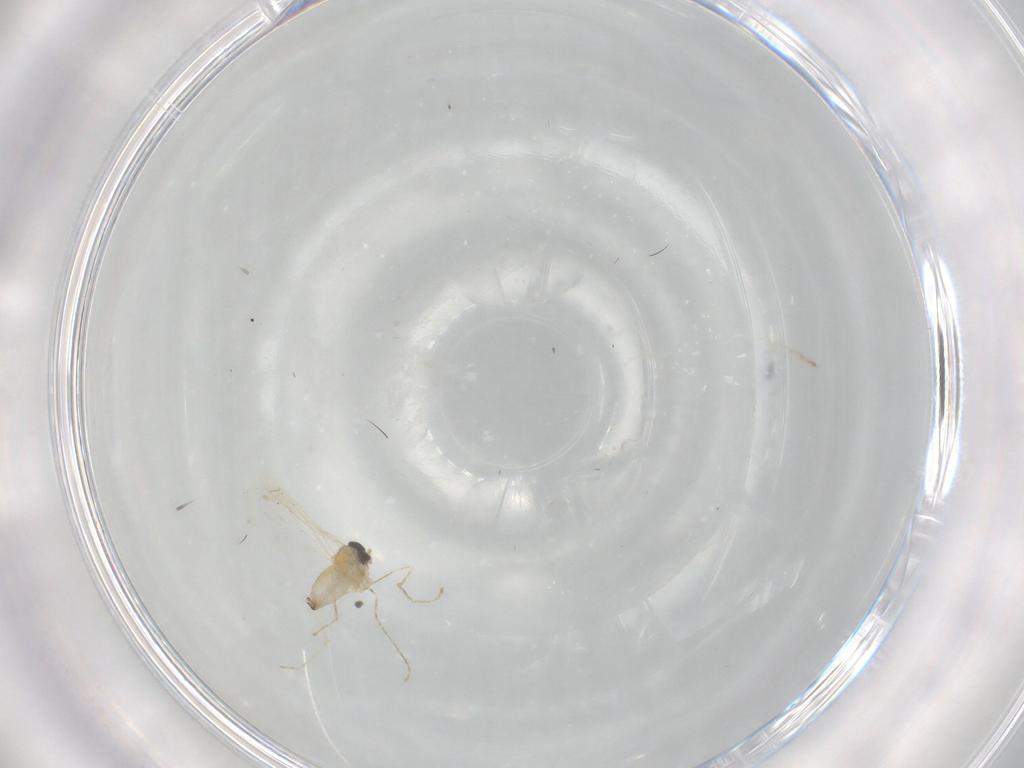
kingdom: Animalia
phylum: Arthropoda
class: Insecta
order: Diptera
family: Cecidomyiidae
